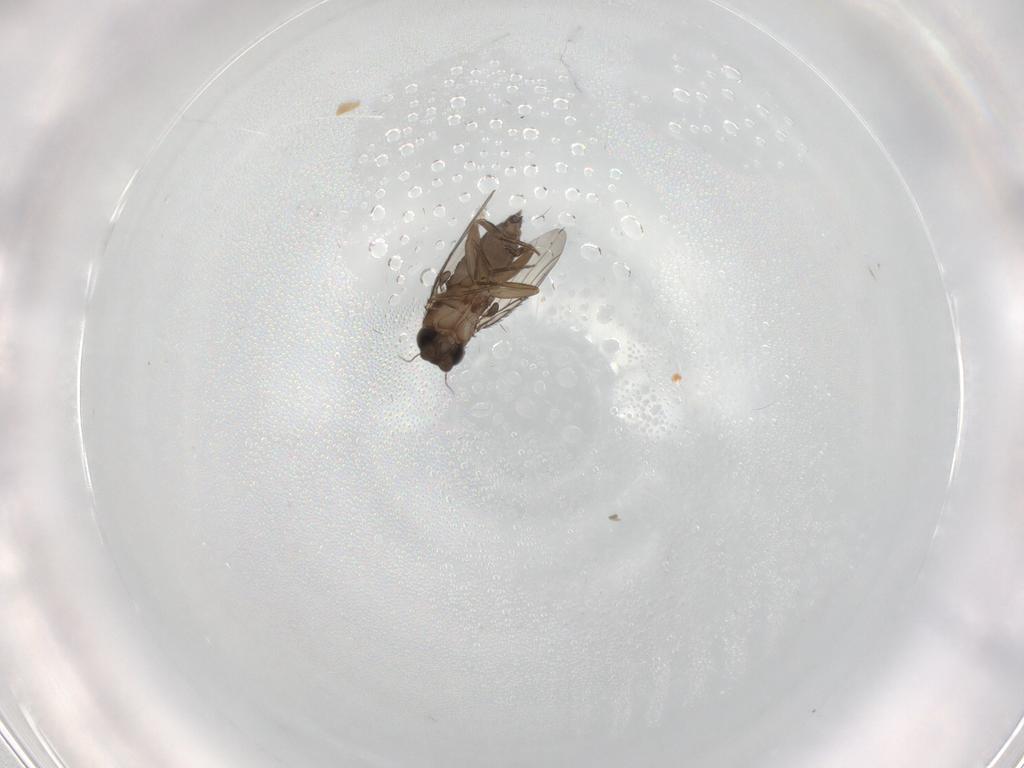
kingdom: Animalia
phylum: Arthropoda
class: Insecta
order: Diptera
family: Phoridae
